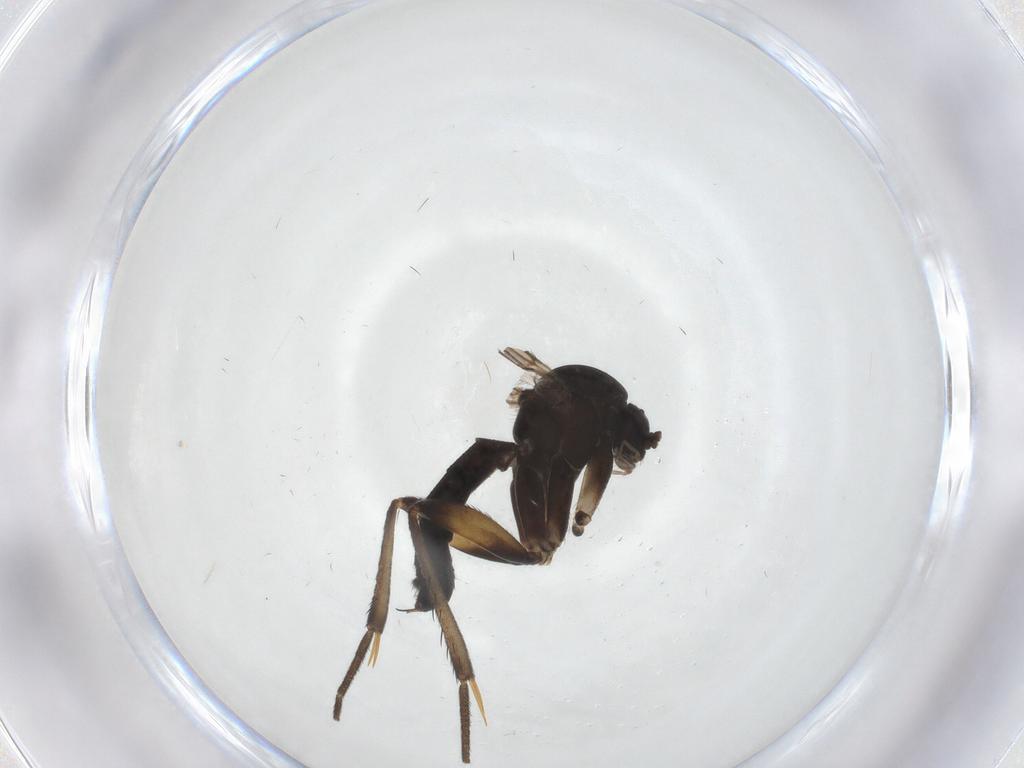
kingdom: Animalia
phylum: Arthropoda
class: Insecta
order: Diptera
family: Mycetophilidae
